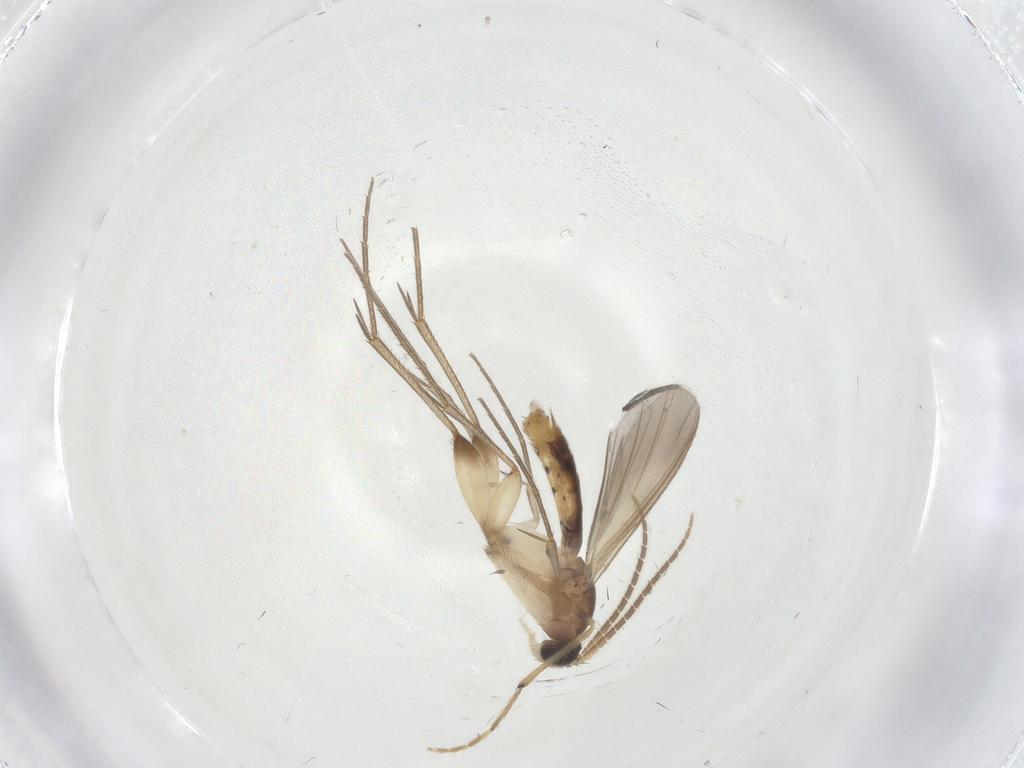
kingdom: Animalia
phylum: Arthropoda
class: Insecta
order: Diptera
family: Mycetophilidae
